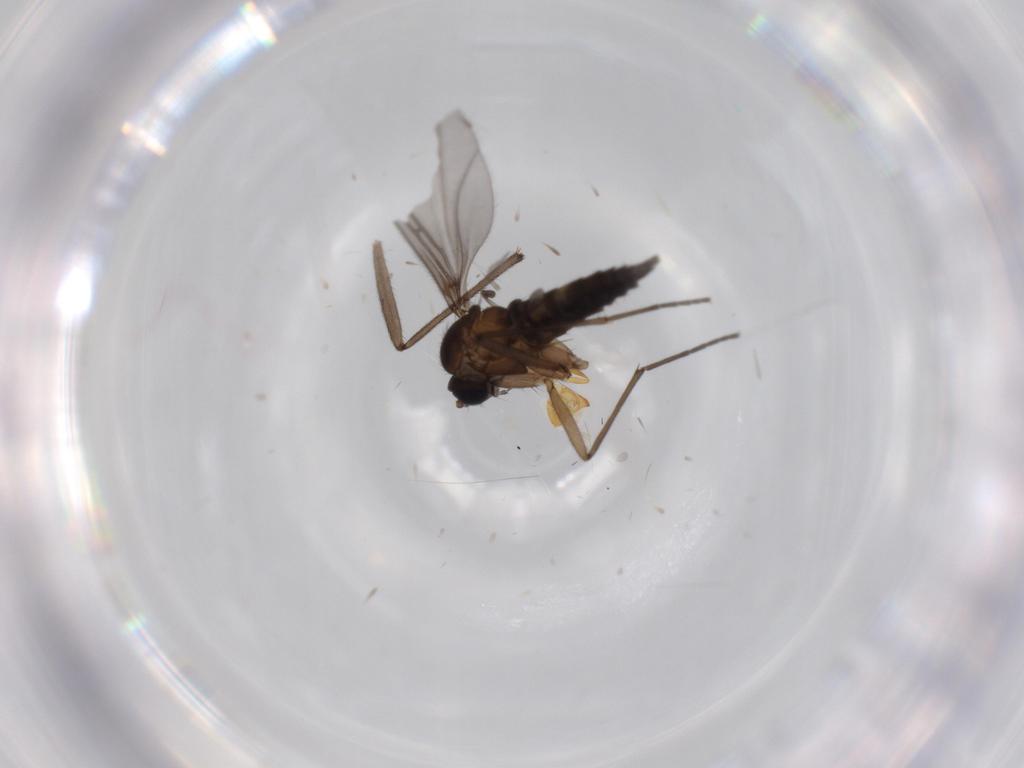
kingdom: Animalia
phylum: Arthropoda
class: Insecta
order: Diptera
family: Sciaridae
